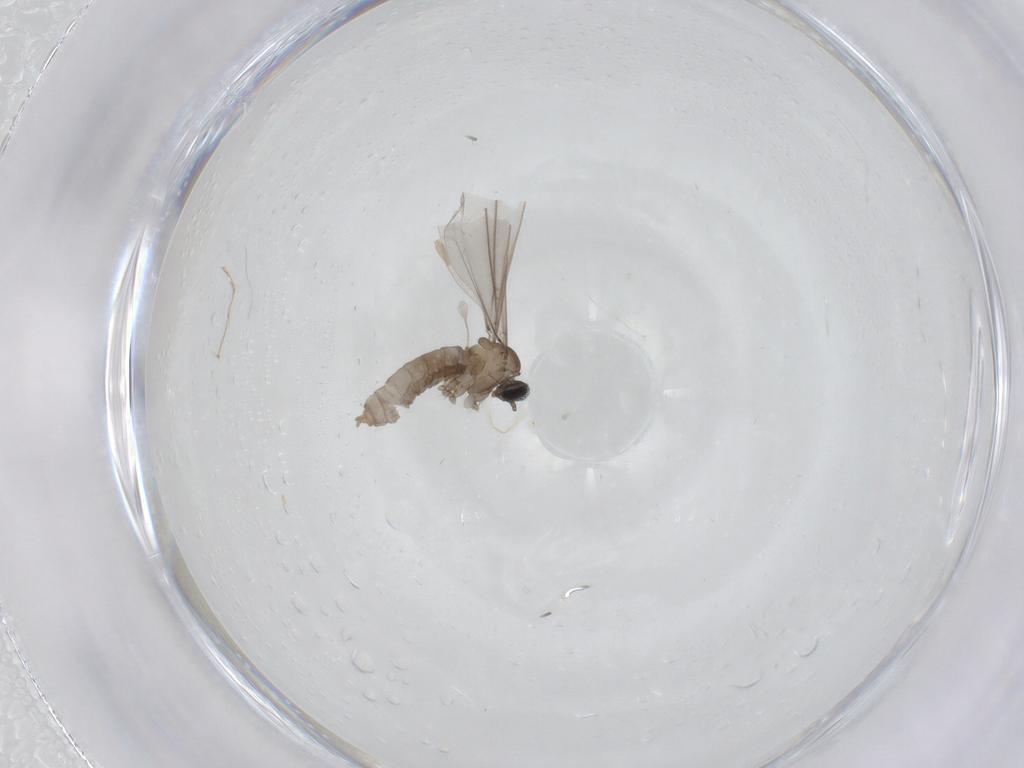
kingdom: Animalia
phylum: Arthropoda
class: Insecta
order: Diptera
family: Cecidomyiidae
